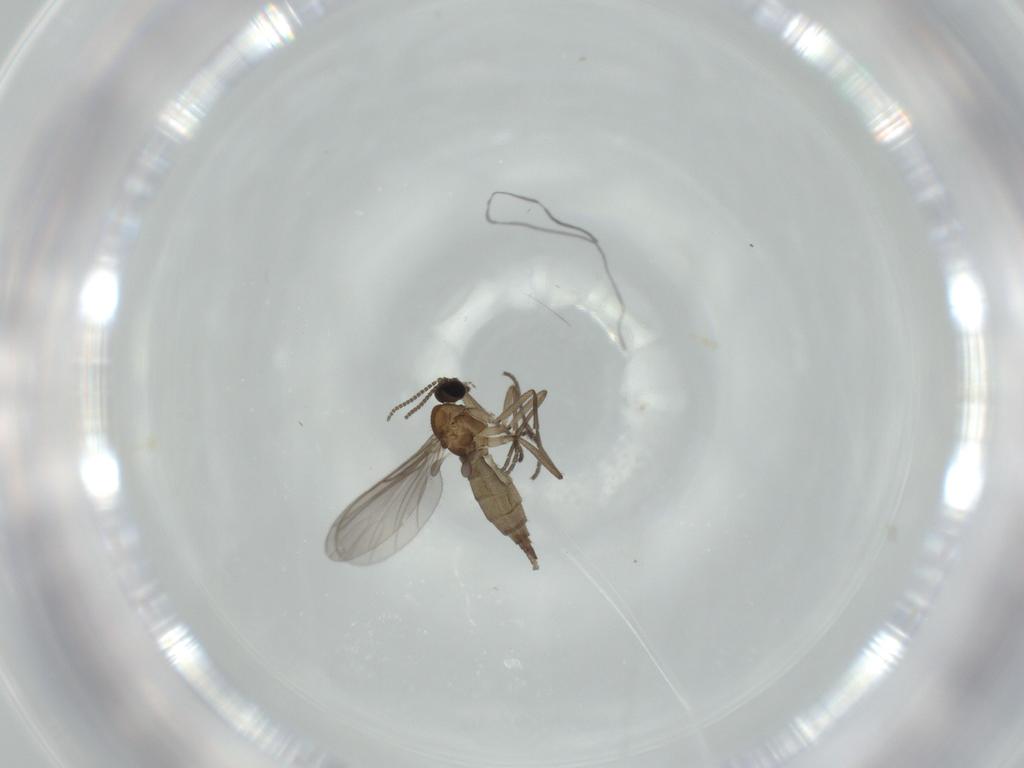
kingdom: Animalia
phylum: Arthropoda
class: Insecta
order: Diptera
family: Sciaridae
